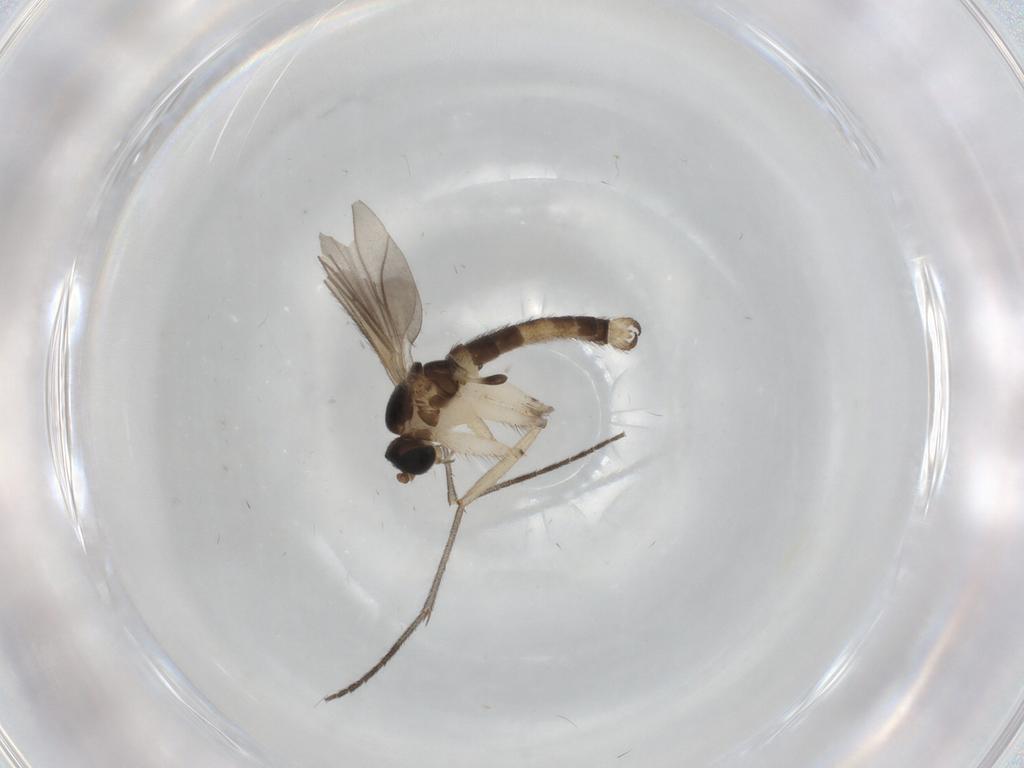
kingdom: Animalia
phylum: Arthropoda
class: Insecta
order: Diptera
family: Sciaridae
